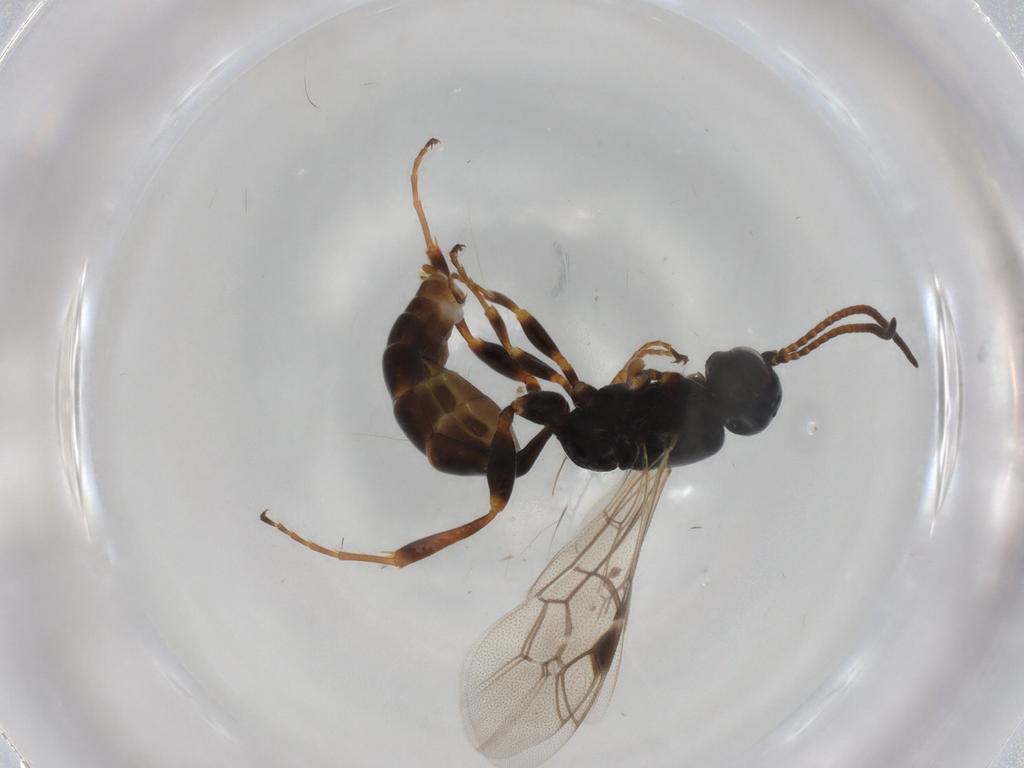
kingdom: Animalia
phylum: Arthropoda
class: Insecta
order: Hymenoptera
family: Ichneumonidae
